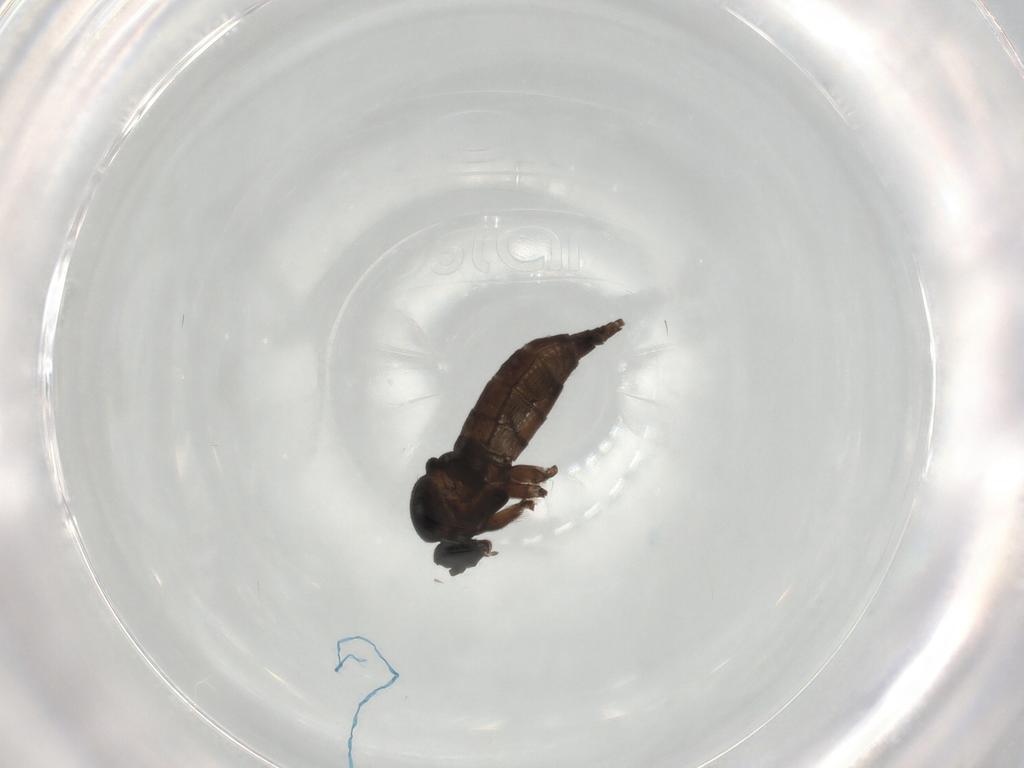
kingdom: Animalia
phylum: Arthropoda
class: Insecta
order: Diptera
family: Sciaridae
